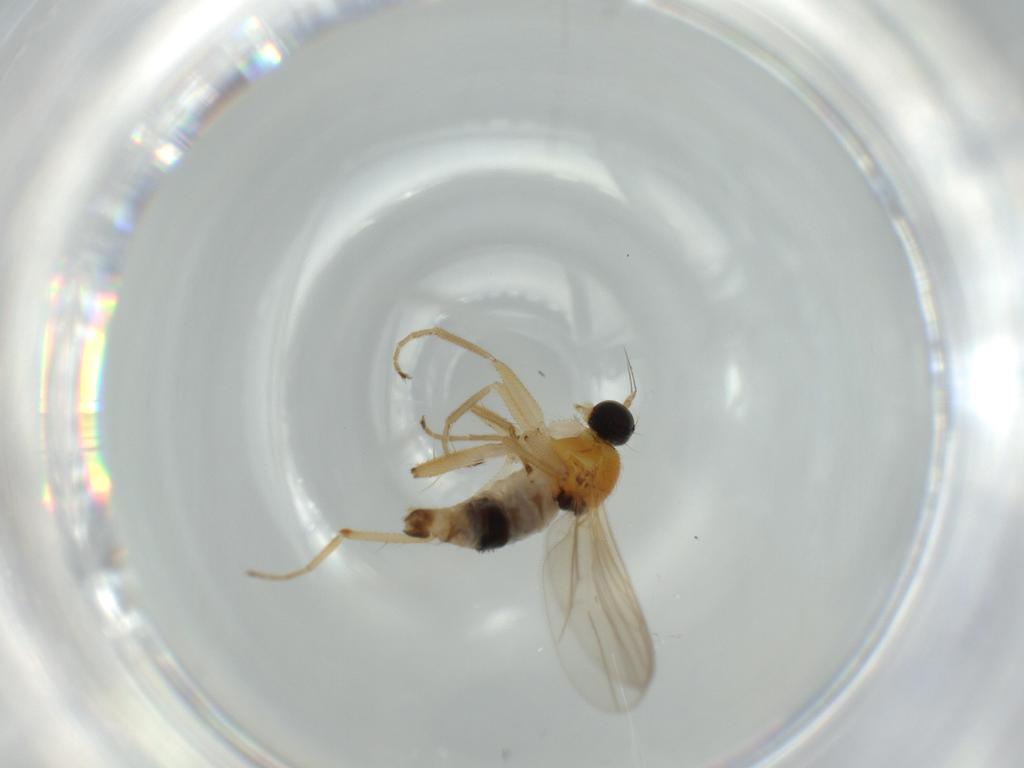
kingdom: Animalia
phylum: Arthropoda
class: Insecta
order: Diptera
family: Hybotidae
